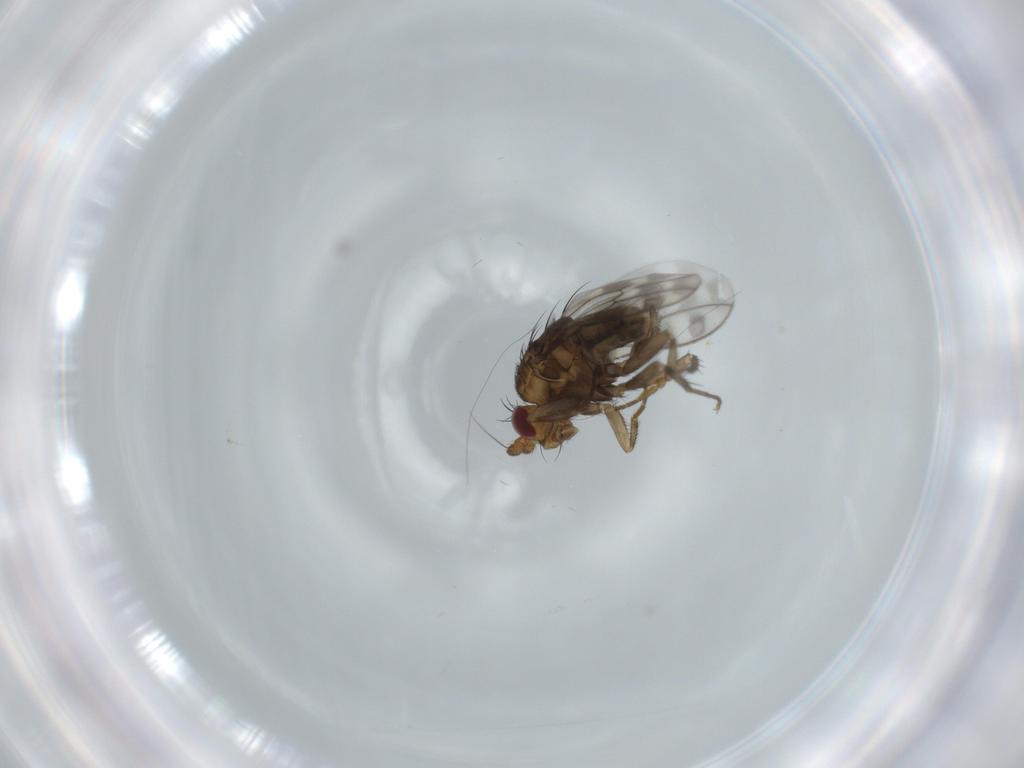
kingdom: Animalia
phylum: Arthropoda
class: Insecta
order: Diptera
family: Sphaeroceridae
